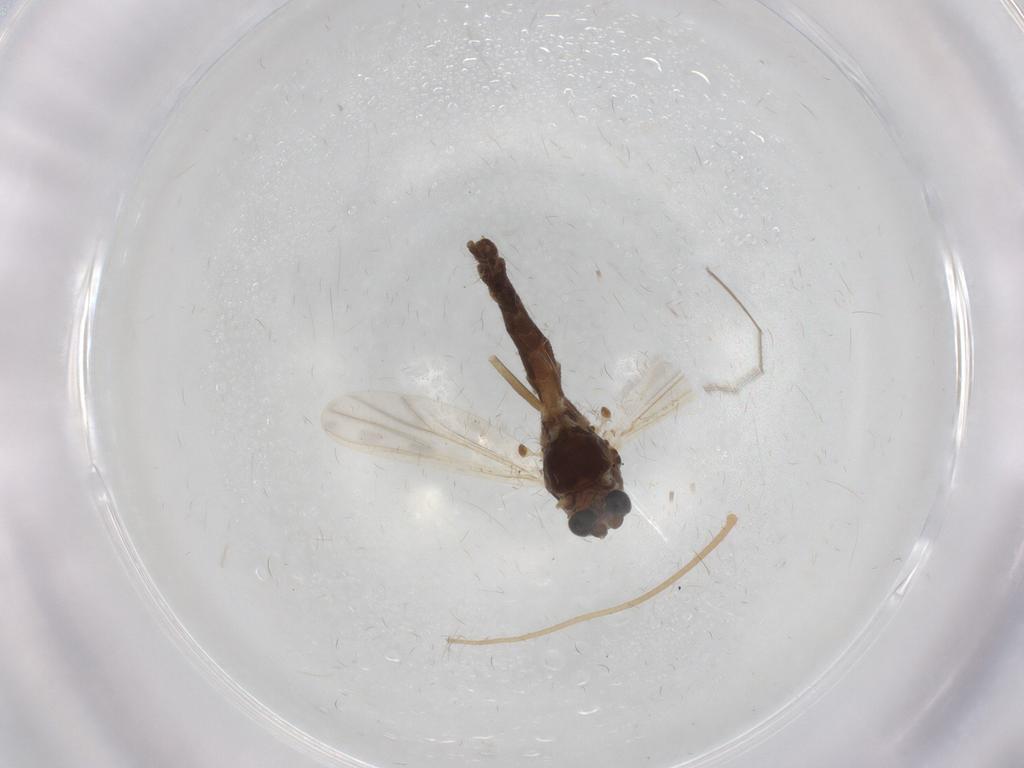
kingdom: Animalia
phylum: Arthropoda
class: Insecta
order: Diptera
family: Chironomidae
